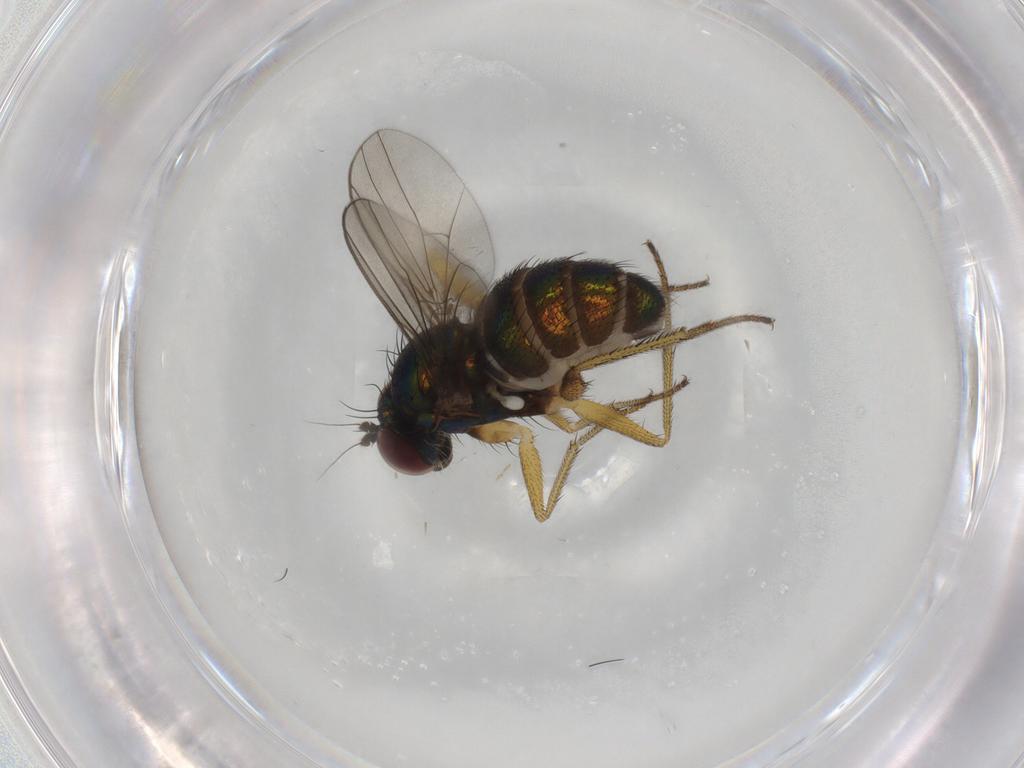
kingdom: Animalia
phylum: Arthropoda
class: Insecta
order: Diptera
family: Dolichopodidae
